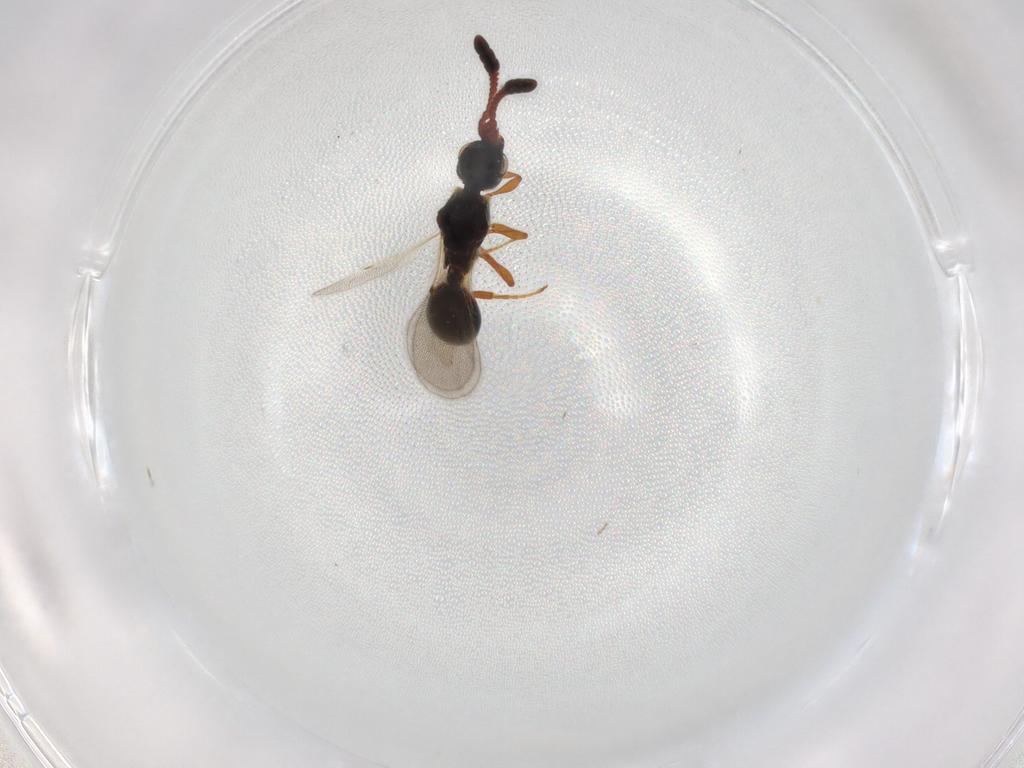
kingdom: Animalia
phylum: Arthropoda
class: Insecta
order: Hymenoptera
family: Diapriidae
